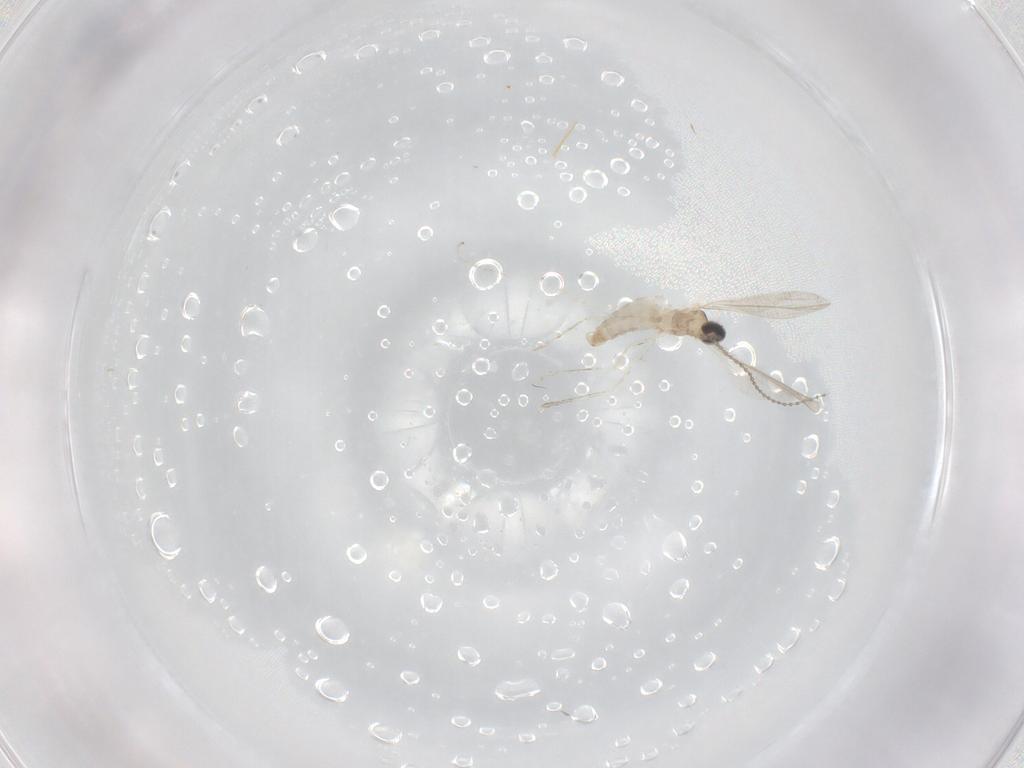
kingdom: Animalia
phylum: Arthropoda
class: Insecta
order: Diptera
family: Cecidomyiidae
